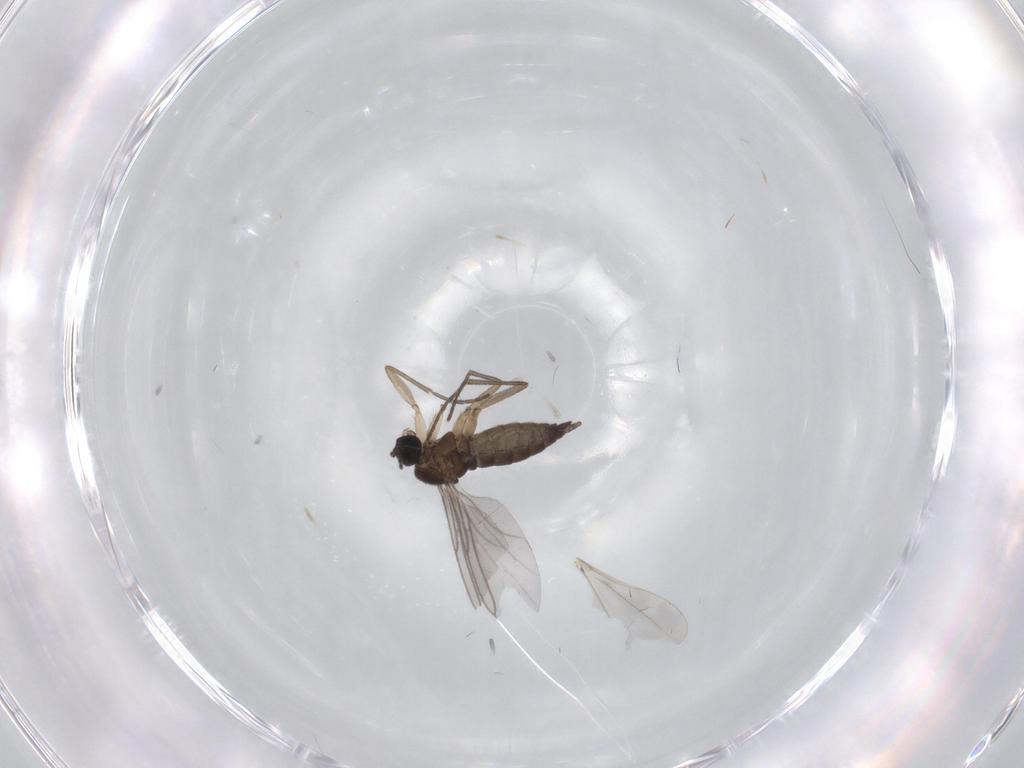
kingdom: Animalia
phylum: Arthropoda
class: Insecta
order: Diptera
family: Sciaridae
